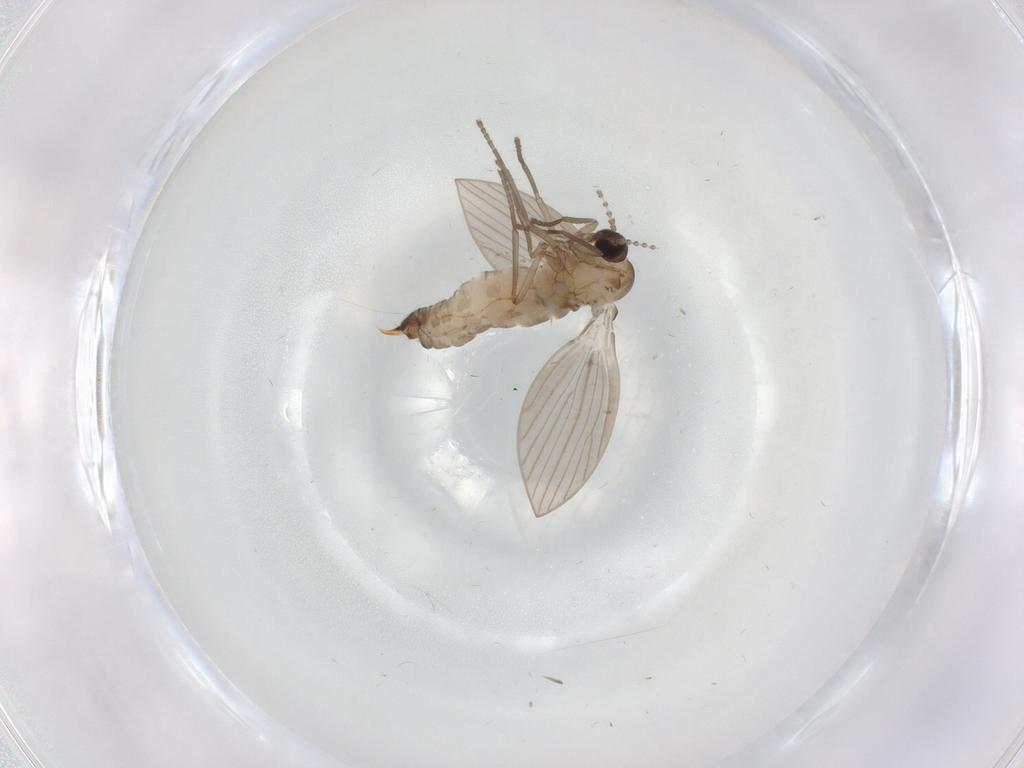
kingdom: Animalia
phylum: Arthropoda
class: Insecta
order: Diptera
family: Psychodidae
